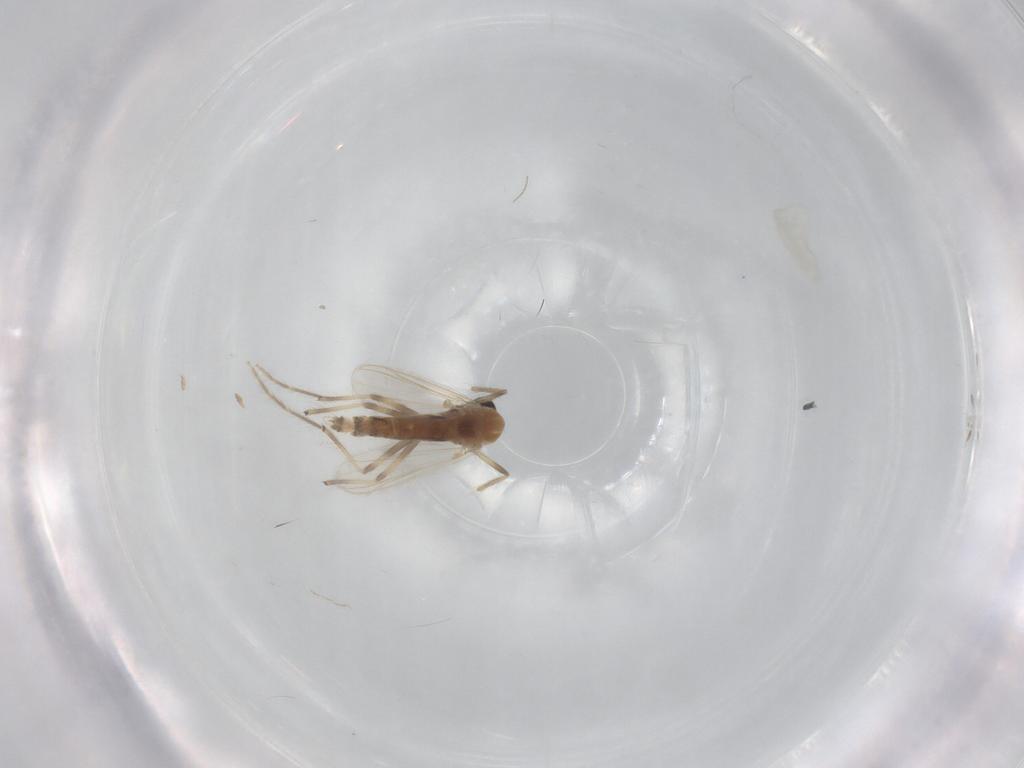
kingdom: Animalia
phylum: Arthropoda
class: Insecta
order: Diptera
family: Chironomidae
